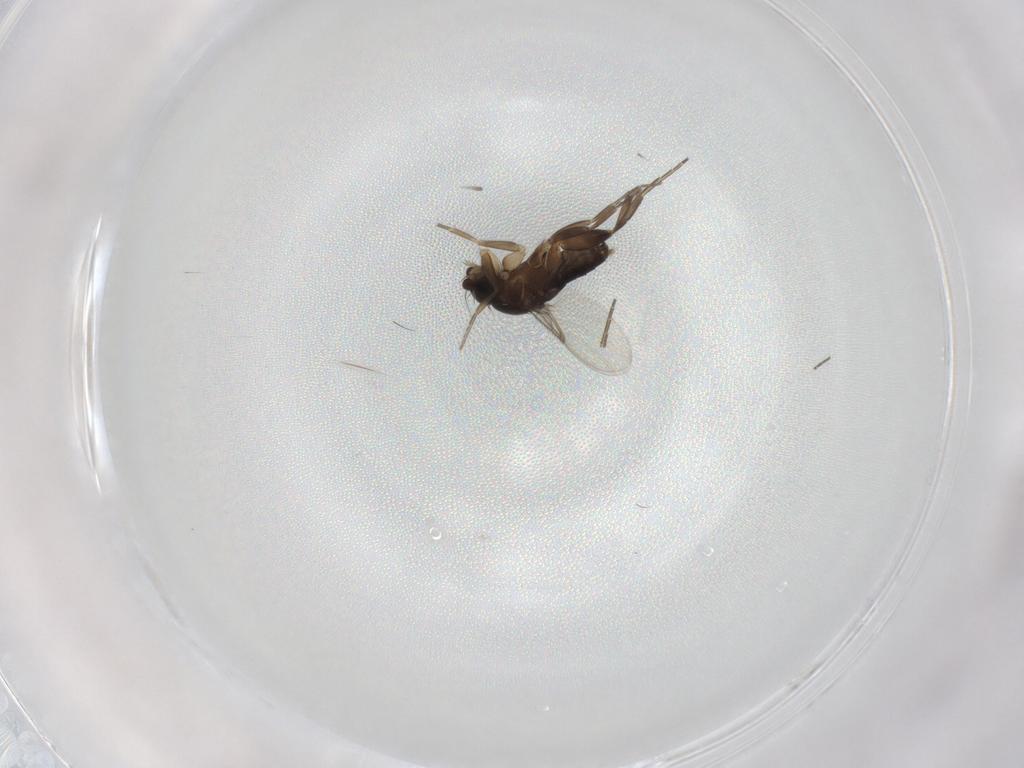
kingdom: Animalia
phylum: Arthropoda
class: Insecta
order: Diptera
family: Phoridae
